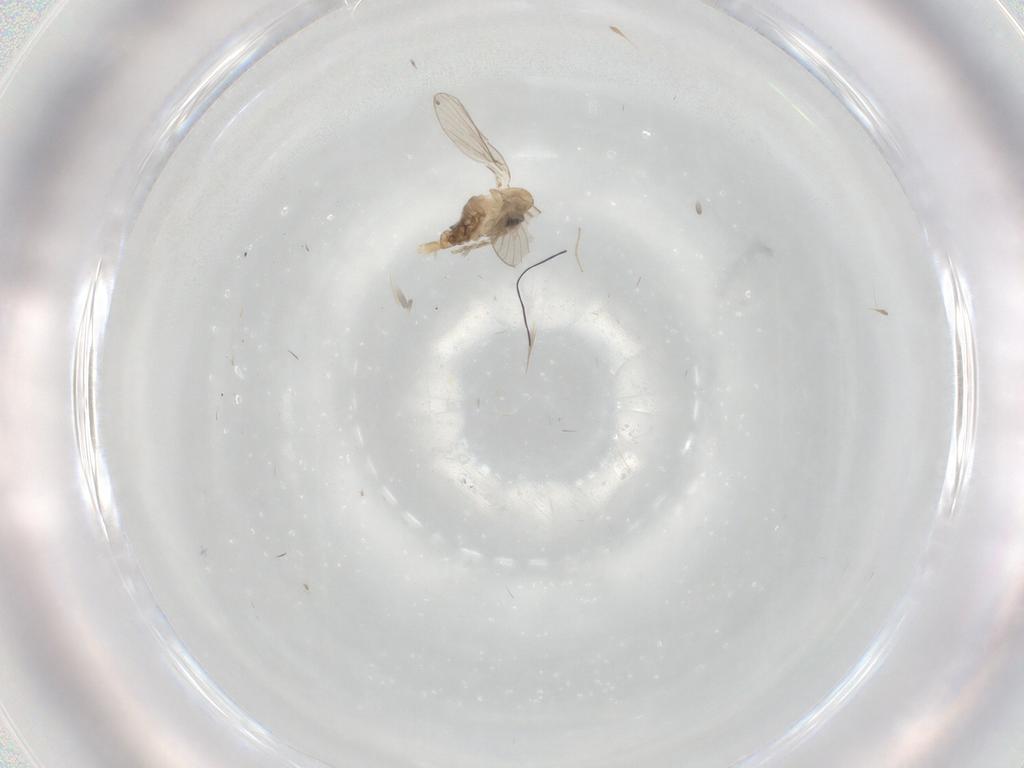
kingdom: Animalia
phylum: Arthropoda
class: Insecta
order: Diptera
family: Psychodidae
